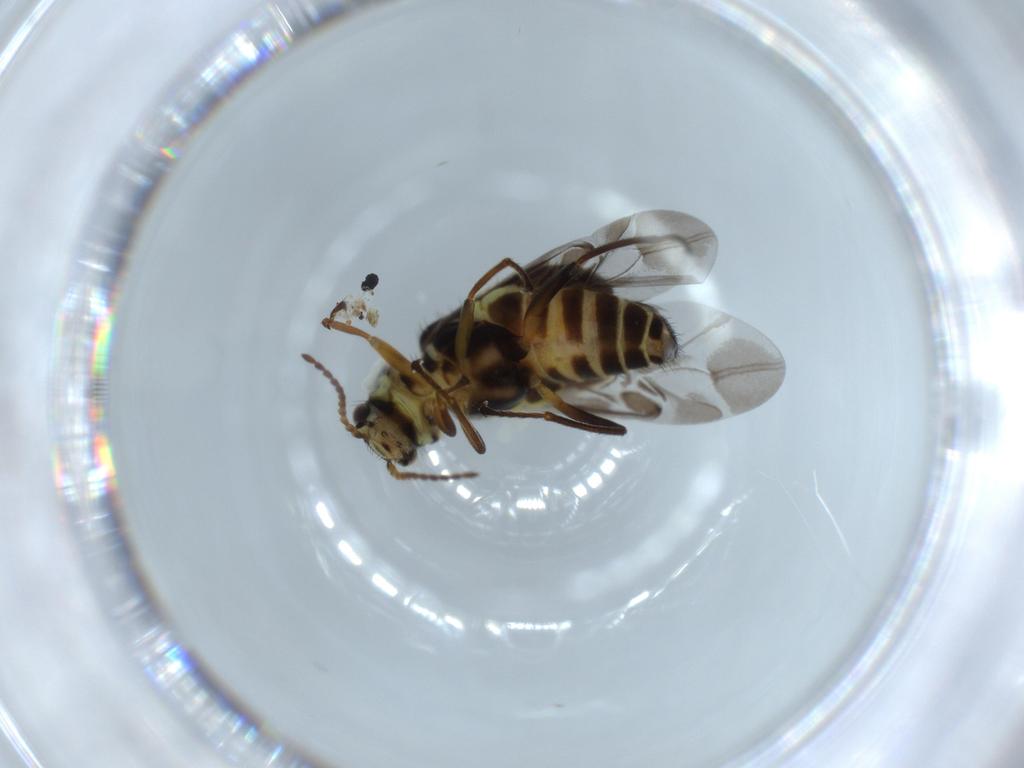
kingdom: Animalia
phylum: Arthropoda
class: Insecta
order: Coleoptera
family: Melyridae
